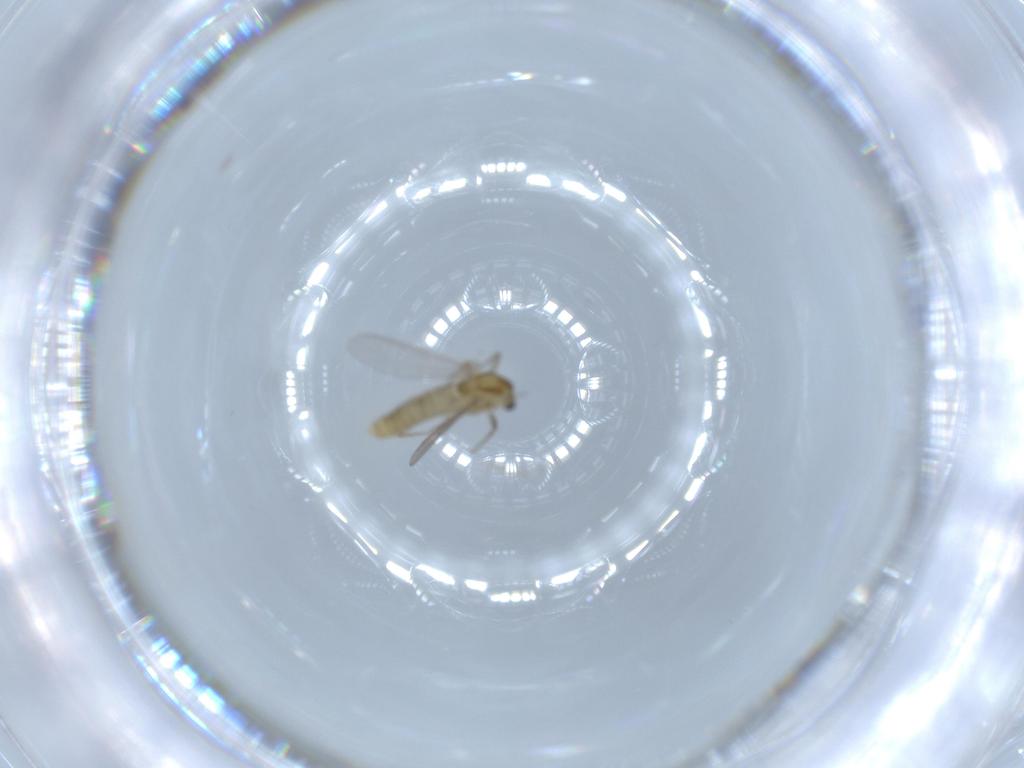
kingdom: Animalia
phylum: Arthropoda
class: Insecta
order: Diptera
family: Chironomidae
